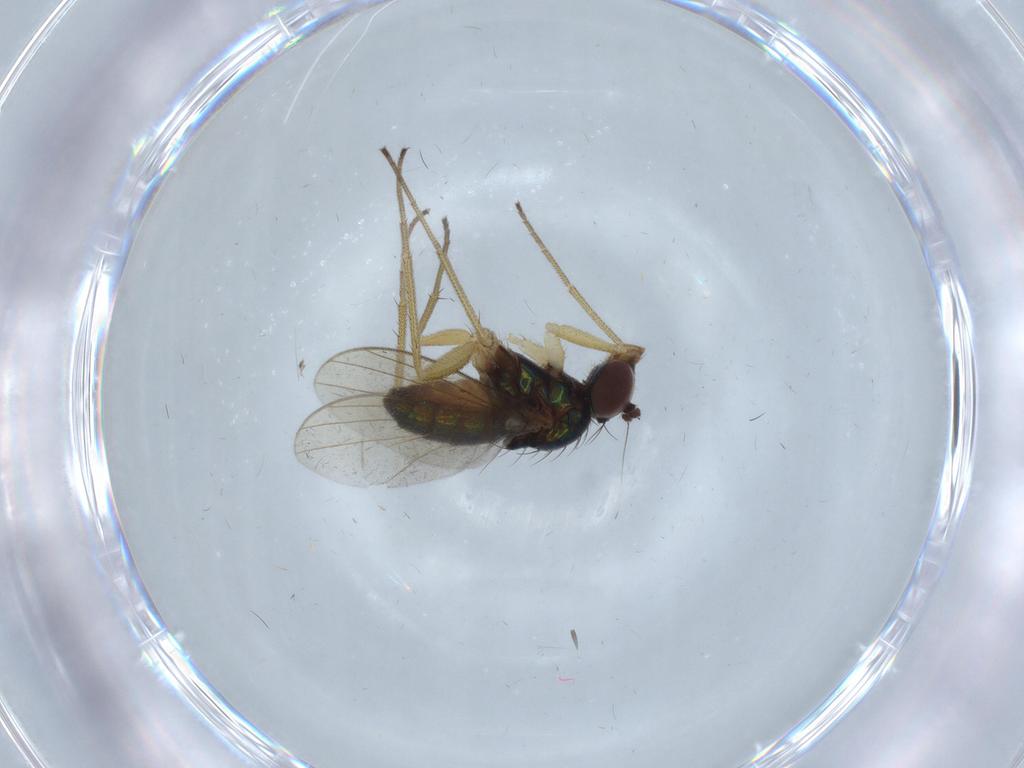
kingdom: Animalia
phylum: Arthropoda
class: Insecta
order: Diptera
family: Dolichopodidae
